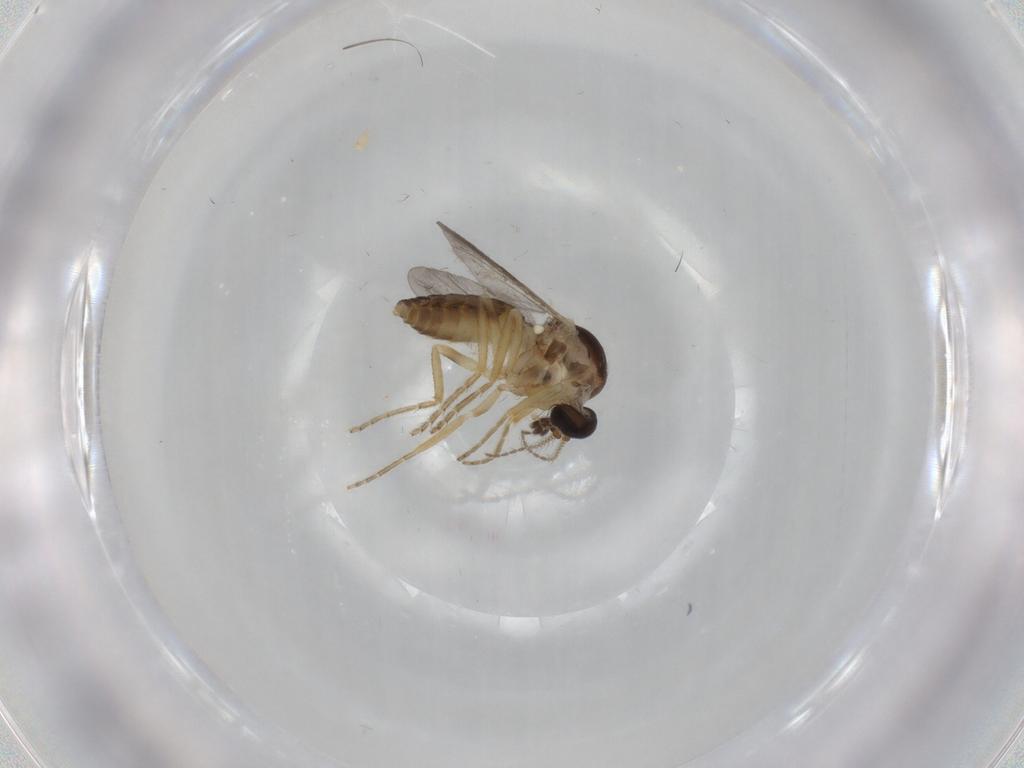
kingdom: Animalia
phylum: Arthropoda
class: Insecta
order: Diptera
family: Ceratopogonidae
